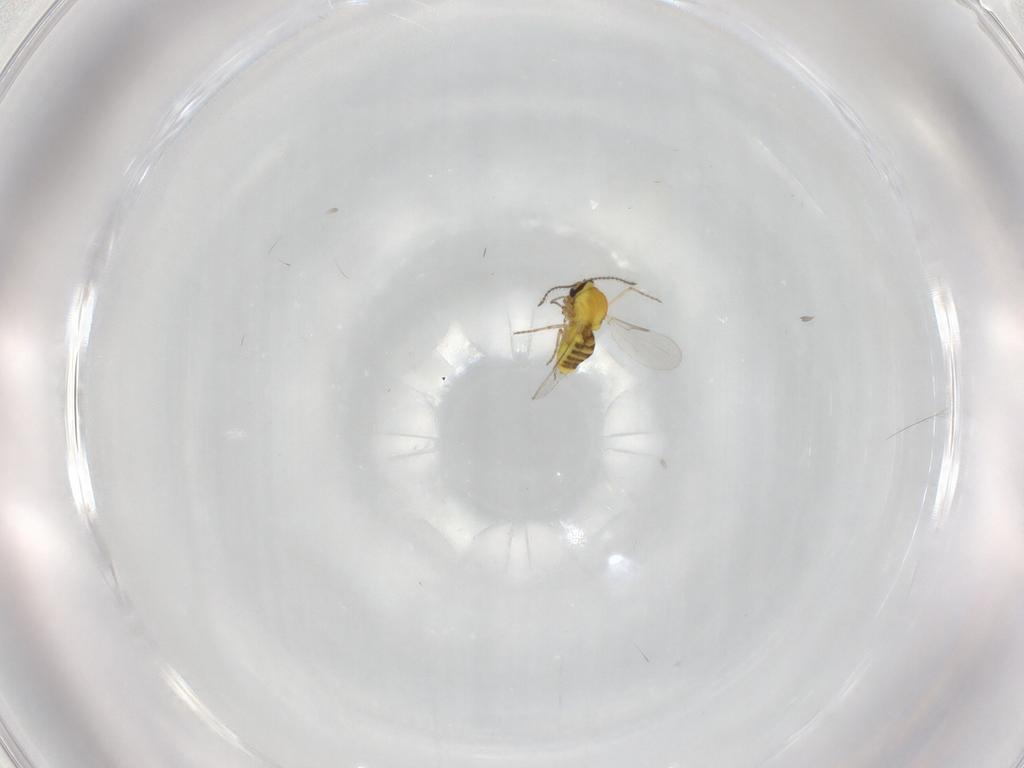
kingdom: Animalia
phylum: Arthropoda
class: Insecta
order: Diptera
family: Ceratopogonidae
